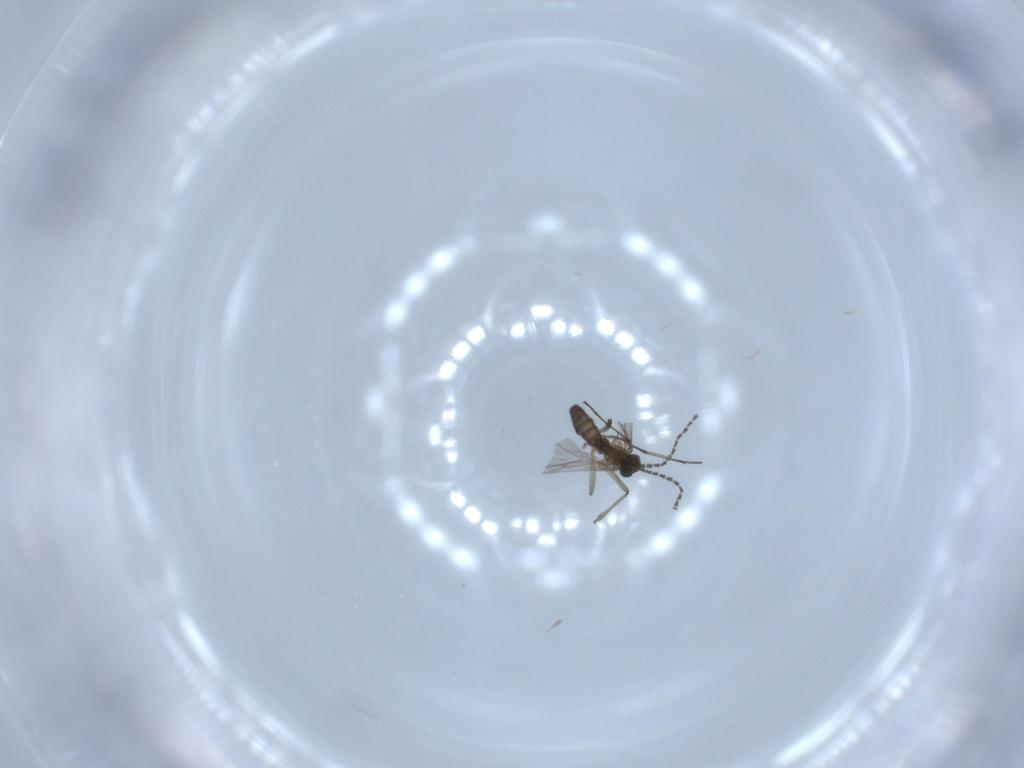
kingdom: Animalia
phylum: Arthropoda
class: Insecta
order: Diptera
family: Sciaridae
